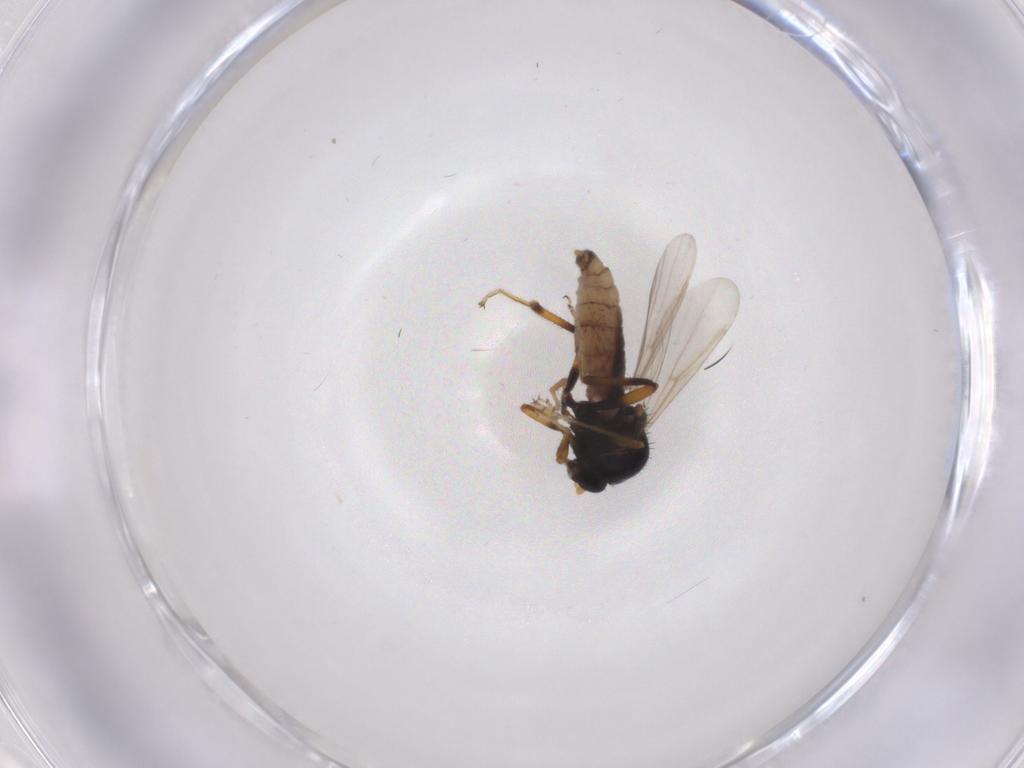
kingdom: Animalia
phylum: Arthropoda
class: Insecta
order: Diptera
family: Ceratopogonidae
